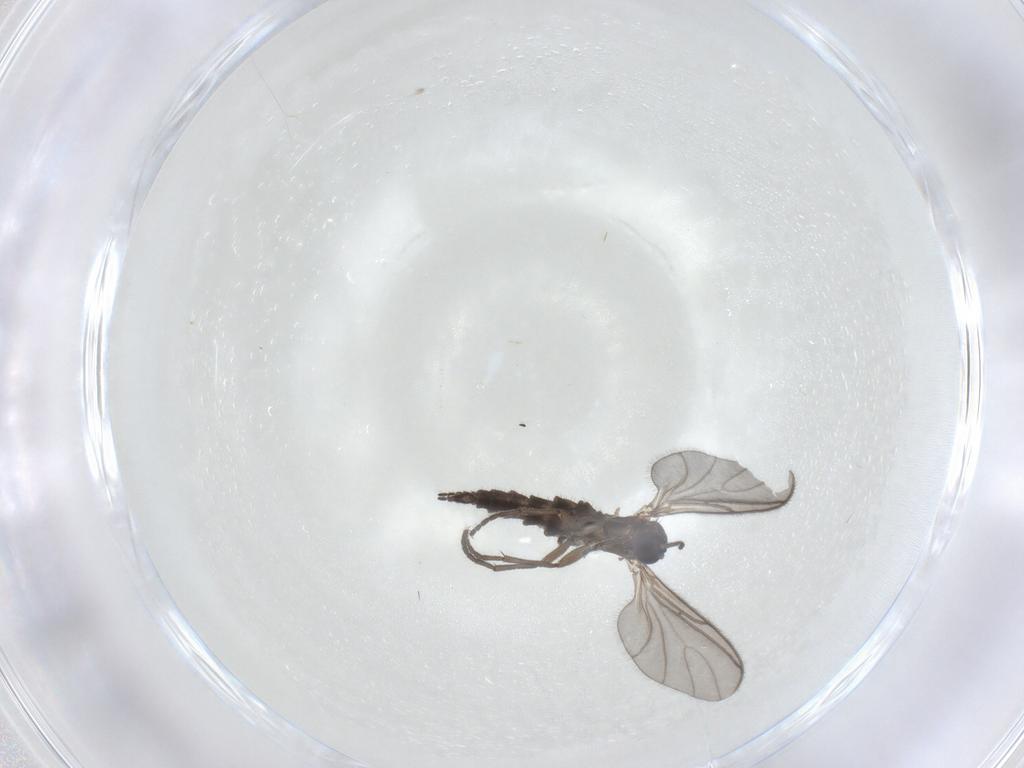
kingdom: Animalia
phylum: Arthropoda
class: Insecta
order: Diptera
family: Sciaridae
